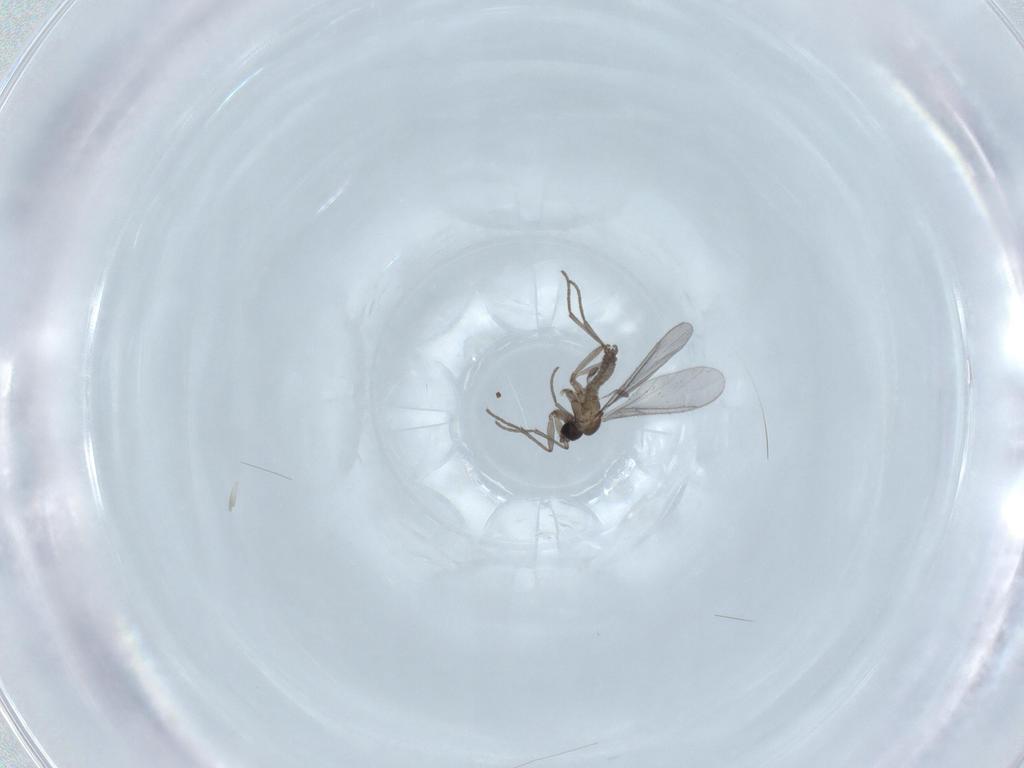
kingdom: Animalia
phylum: Arthropoda
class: Insecta
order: Diptera
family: Sciaridae
